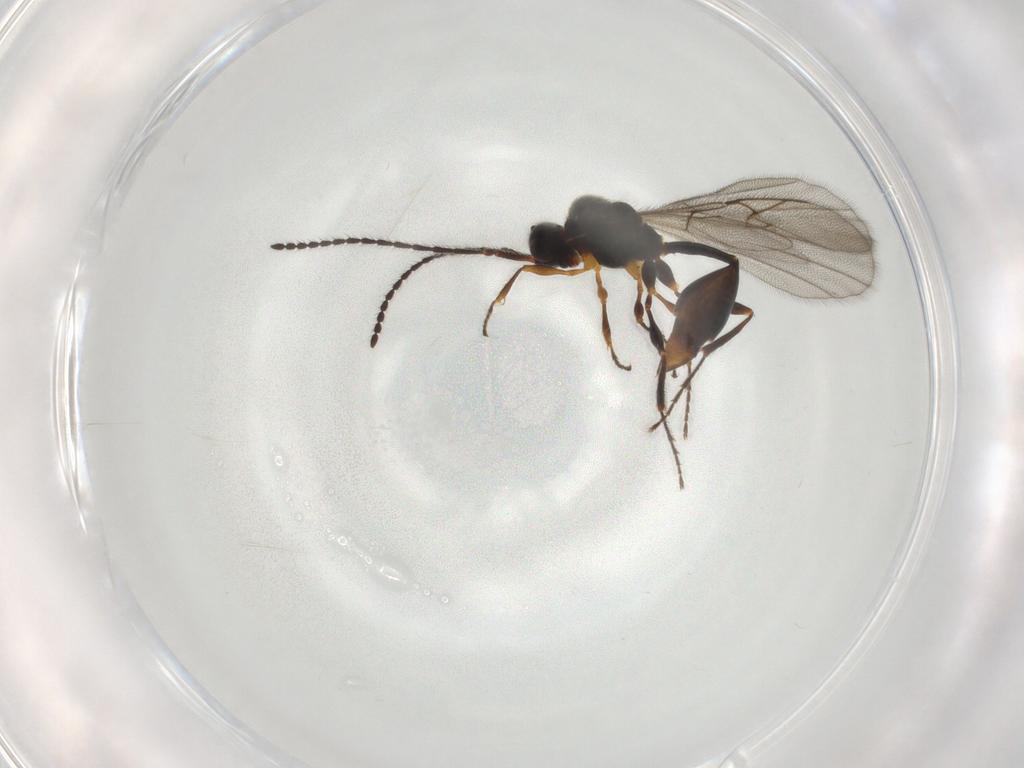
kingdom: Animalia
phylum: Arthropoda
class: Insecta
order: Hymenoptera
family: Diapriidae
